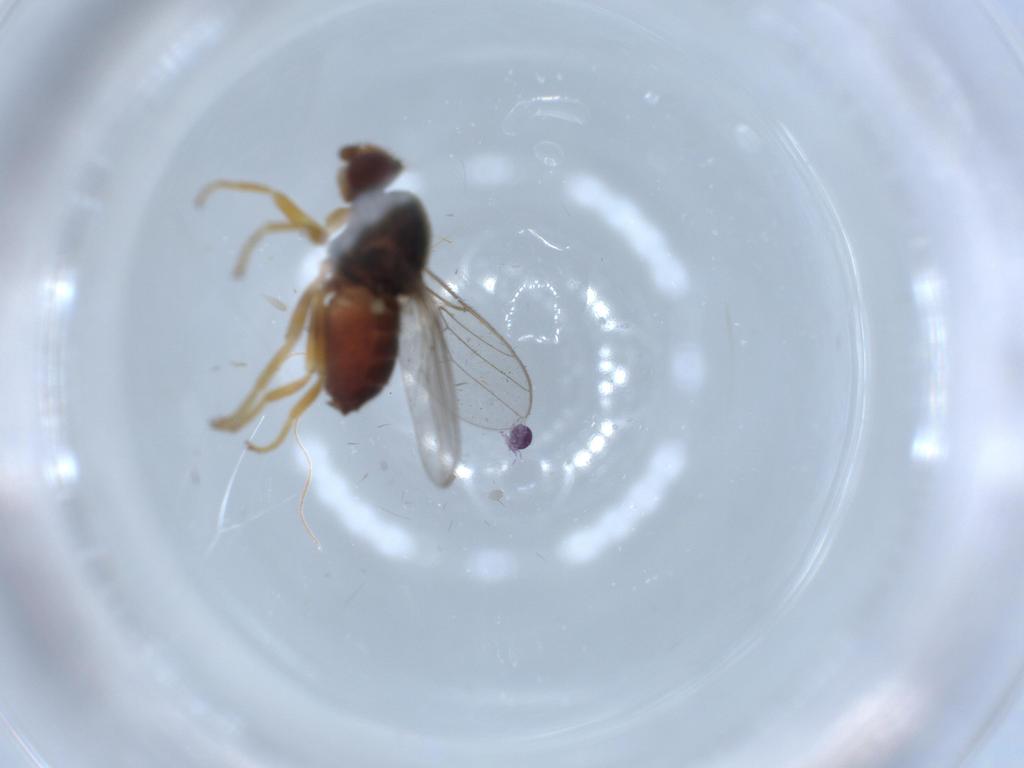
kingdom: Animalia
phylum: Arthropoda
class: Insecta
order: Diptera
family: Chloropidae
